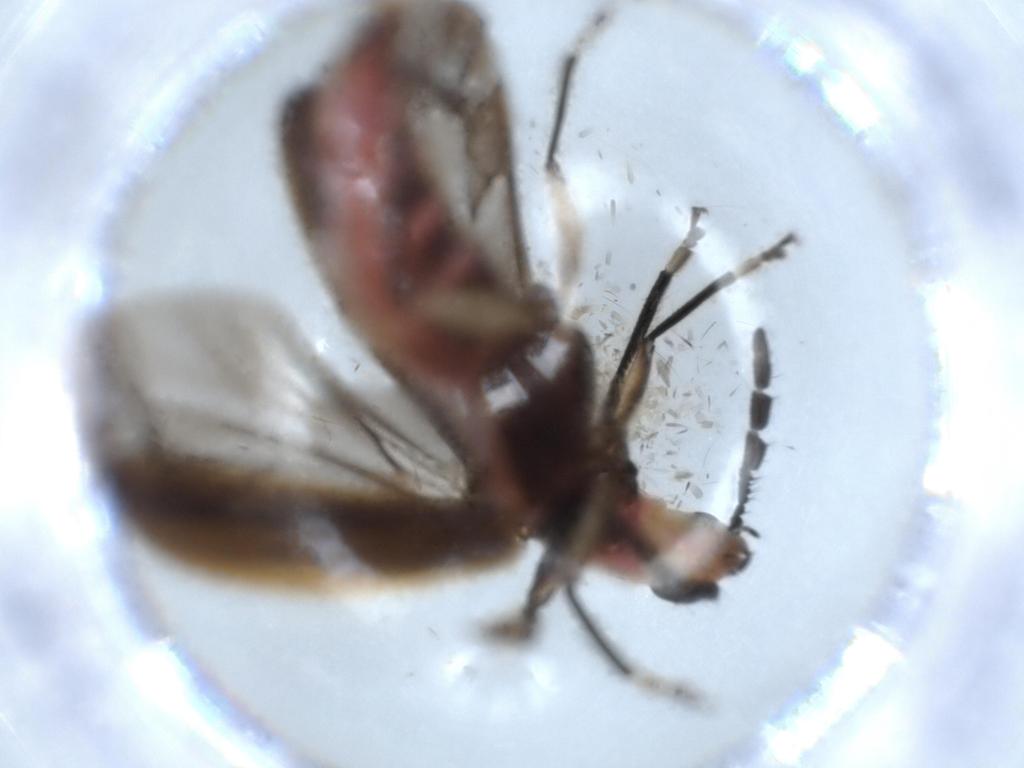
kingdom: Animalia
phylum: Arthropoda
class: Insecta
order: Coleoptera
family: Cleridae
